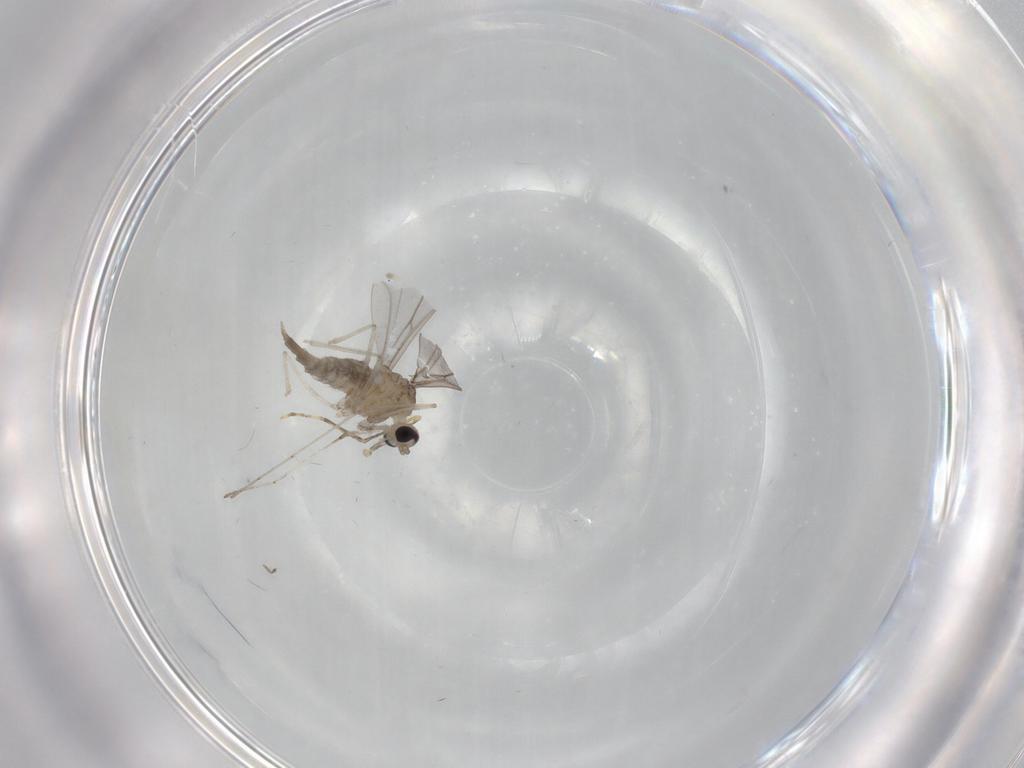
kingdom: Animalia
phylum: Arthropoda
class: Insecta
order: Diptera
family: Cecidomyiidae
